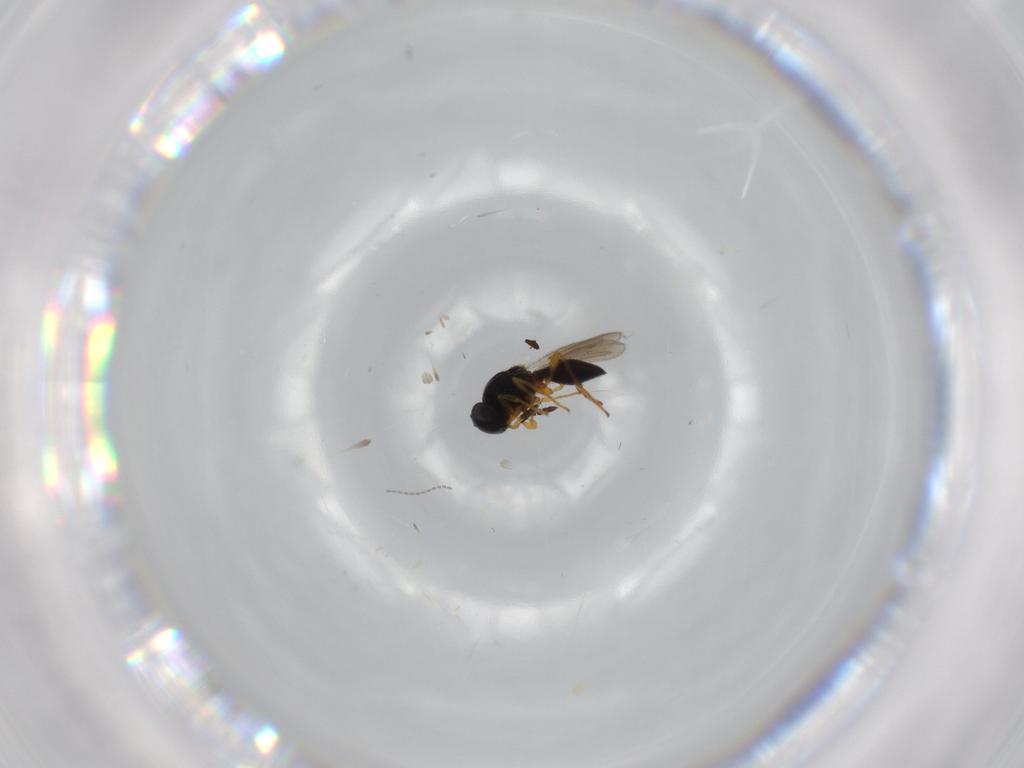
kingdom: Animalia
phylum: Arthropoda
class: Insecta
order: Hymenoptera
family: Platygastridae
